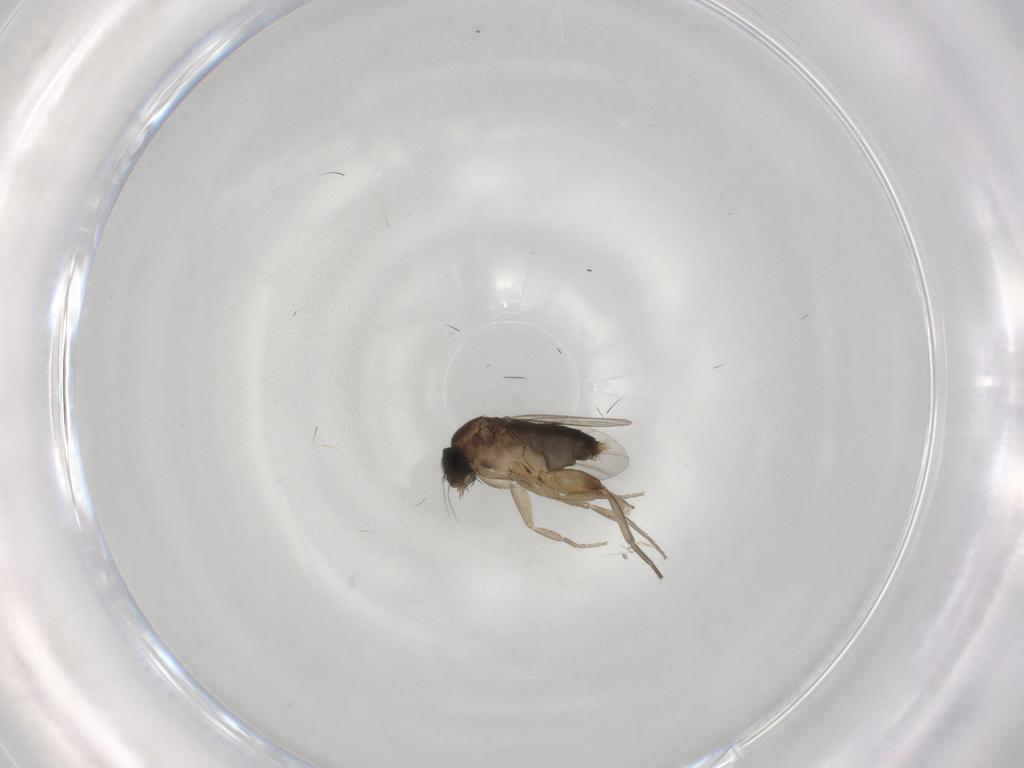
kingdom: Animalia
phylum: Arthropoda
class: Insecta
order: Diptera
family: Phoridae
